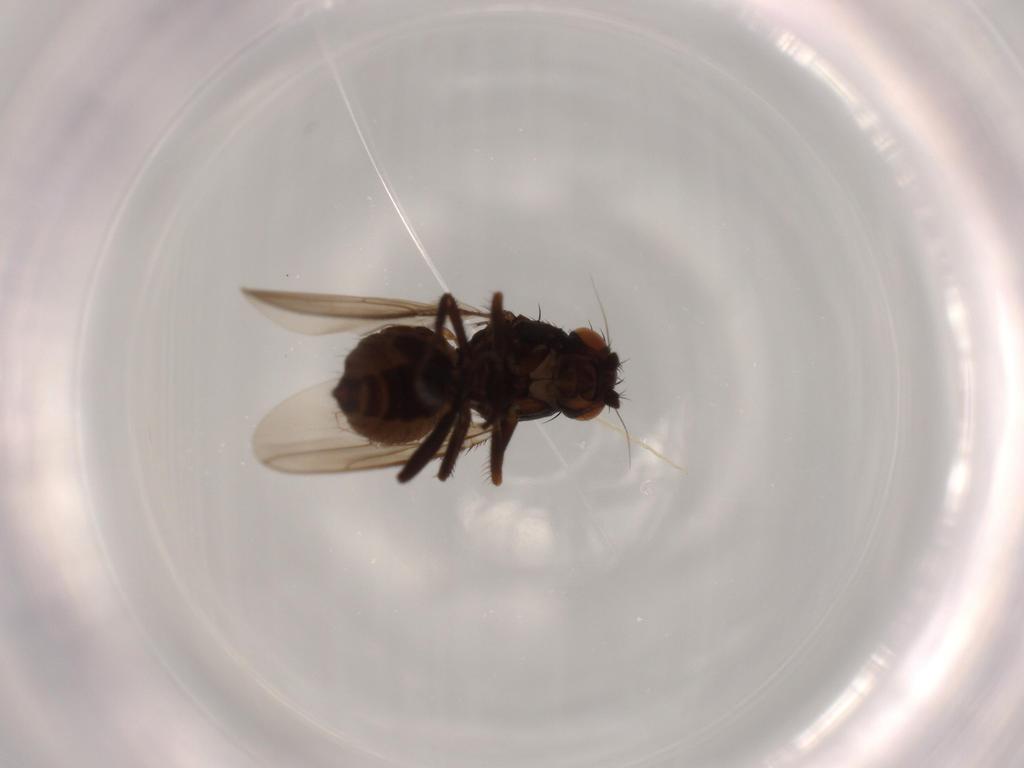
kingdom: Animalia
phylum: Arthropoda
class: Insecta
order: Diptera
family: Sphaeroceridae
